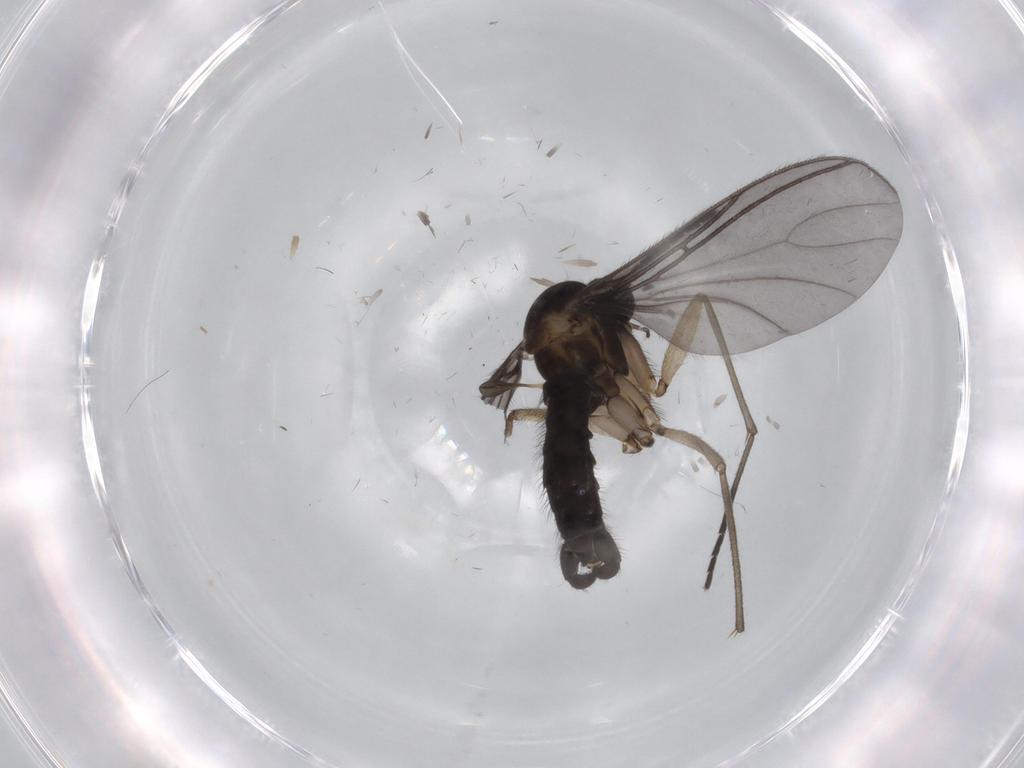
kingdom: Animalia
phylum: Arthropoda
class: Insecta
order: Diptera
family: Sciaridae
